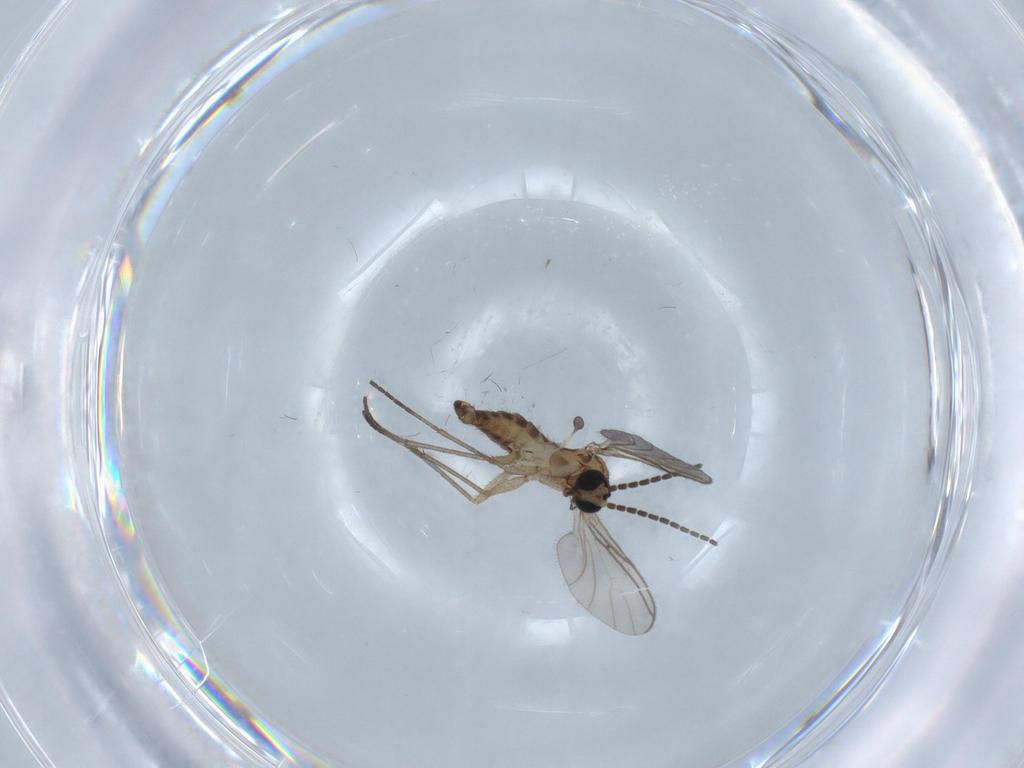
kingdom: Animalia
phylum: Arthropoda
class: Insecta
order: Diptera
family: Sciaridae
